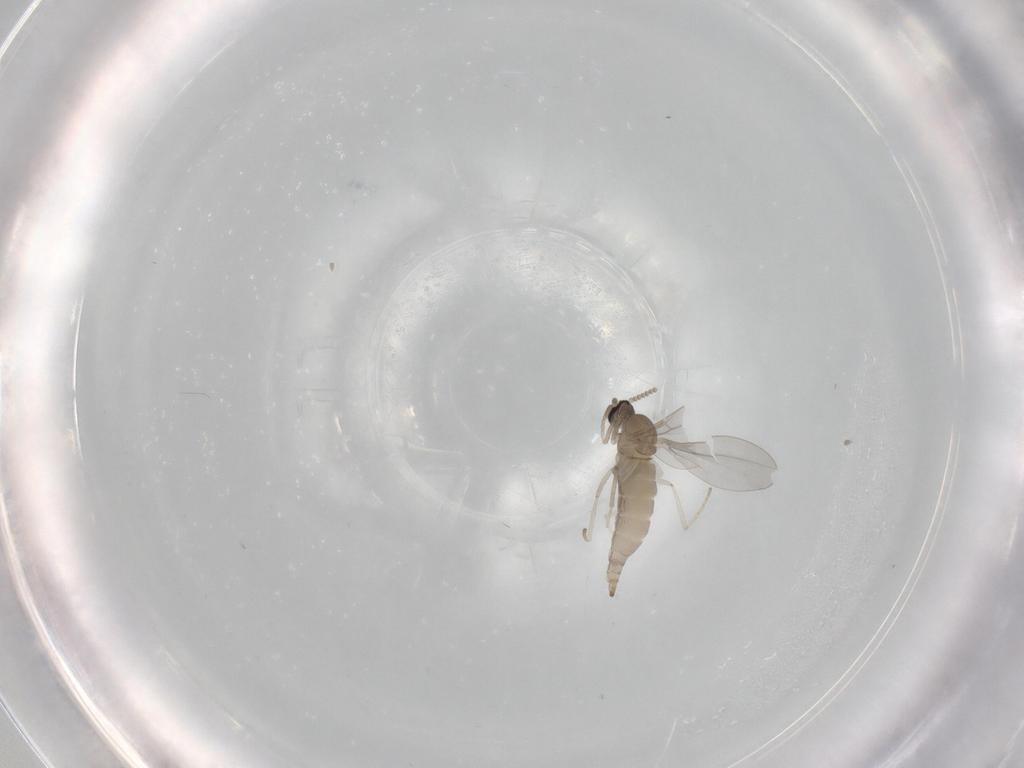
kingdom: Animalia
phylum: Arthropoda
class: Insecta
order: Diptera
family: Cecidomyiidae
